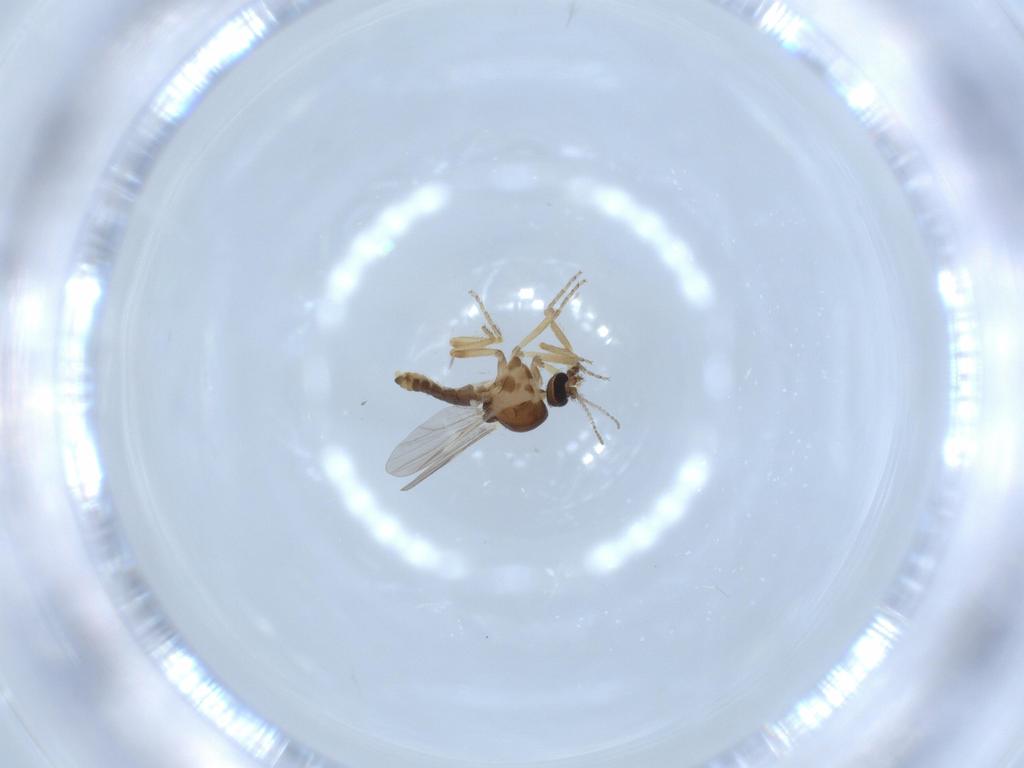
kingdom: Animalia
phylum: Arthropoda
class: Insecta
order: Diptera
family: Ceratopogonidae
